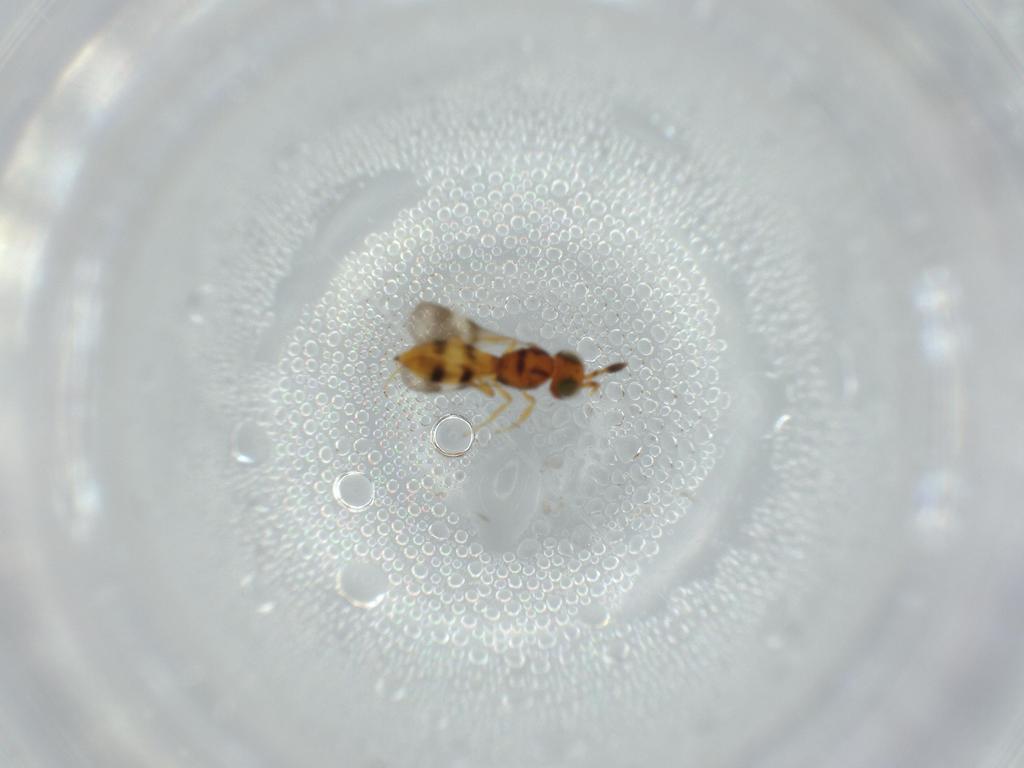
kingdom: Animalia
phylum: Arthropoda
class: Insecta
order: Hymenoptera
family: Scelionidae
